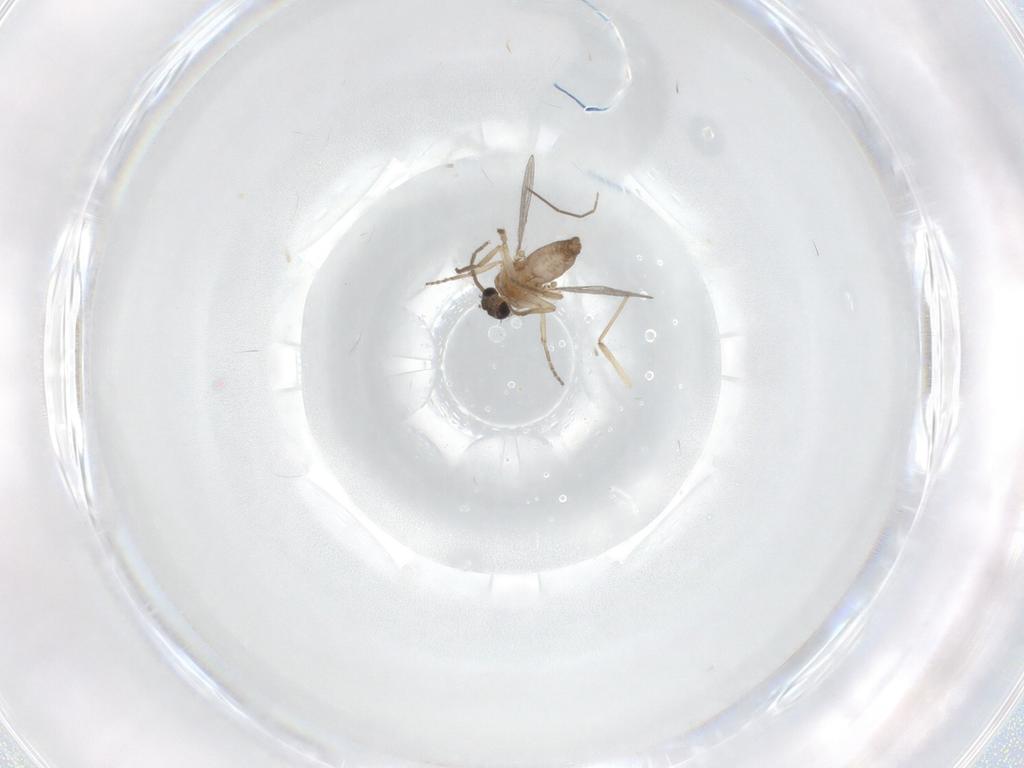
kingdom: Animalia
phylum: Arthropoda
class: Insecta
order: Diptera
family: Chironomidae
